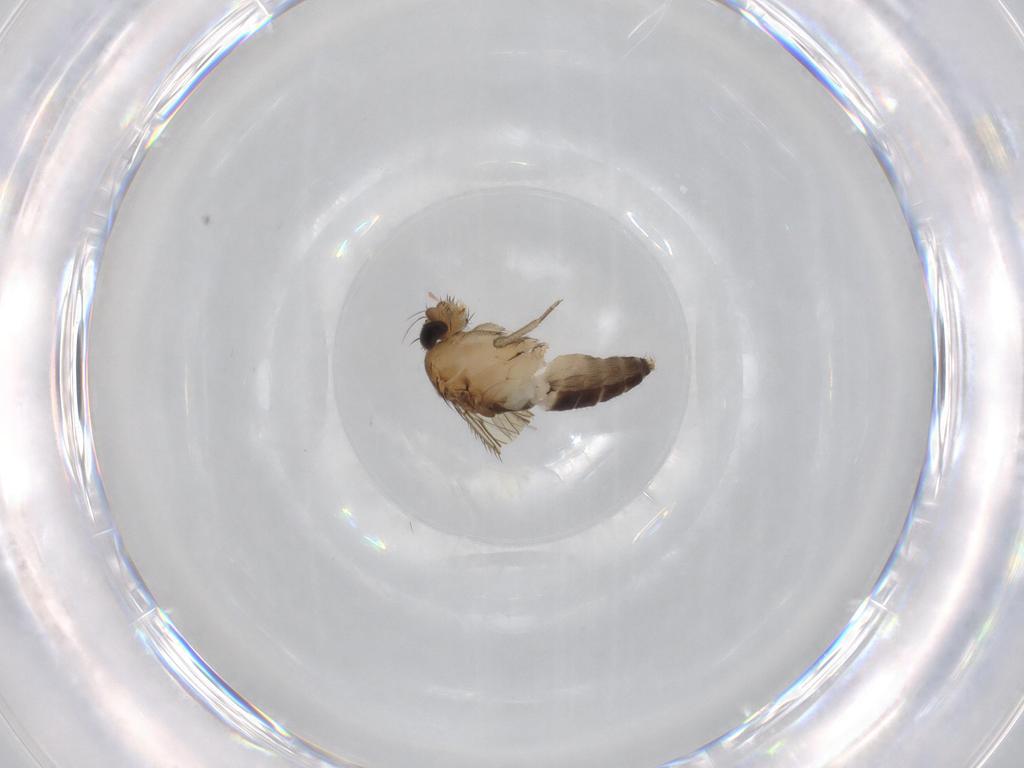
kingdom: Animalia
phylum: Arthropoda
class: Insecta
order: Diptera
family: Phoridae
